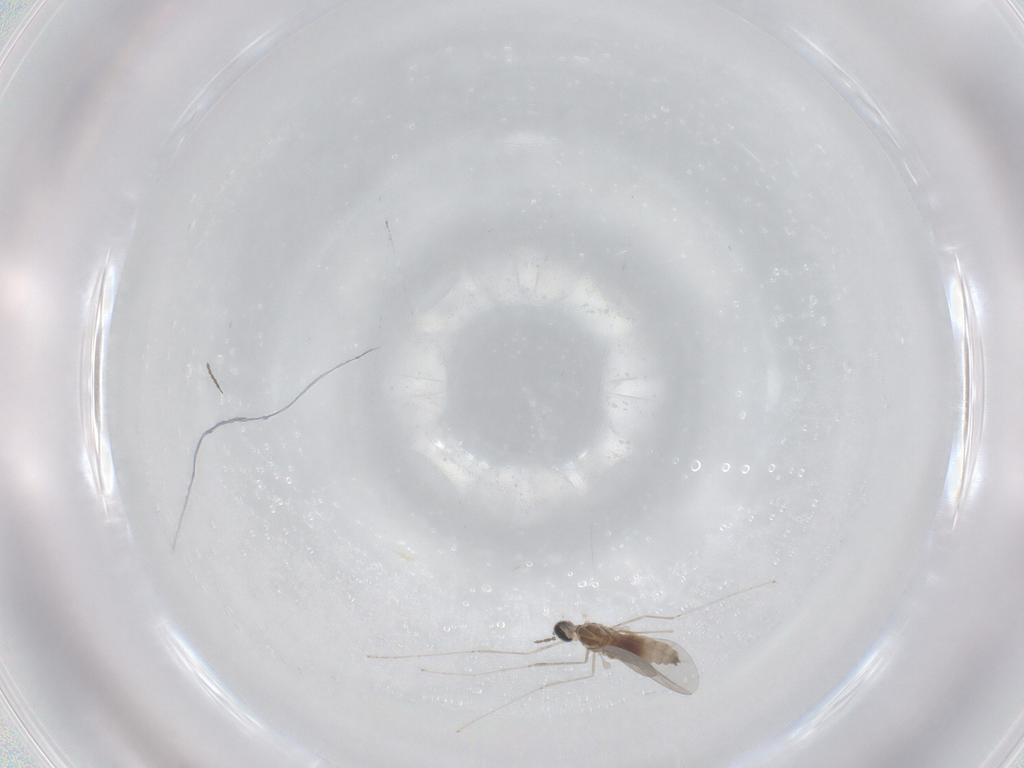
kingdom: Animalia
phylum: Arthropoda
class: Insecta
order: Diptera
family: Cecidomyiidae
